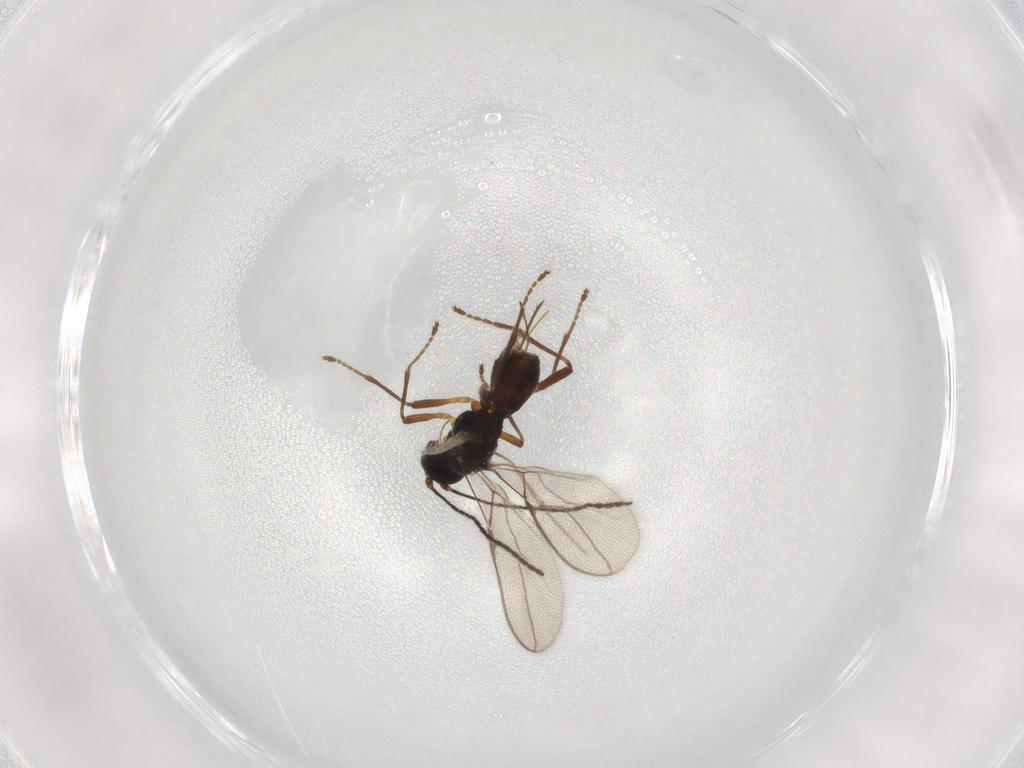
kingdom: Animalia
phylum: Arthropoda
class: Insecta
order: Hymenoptera
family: Braconidae
